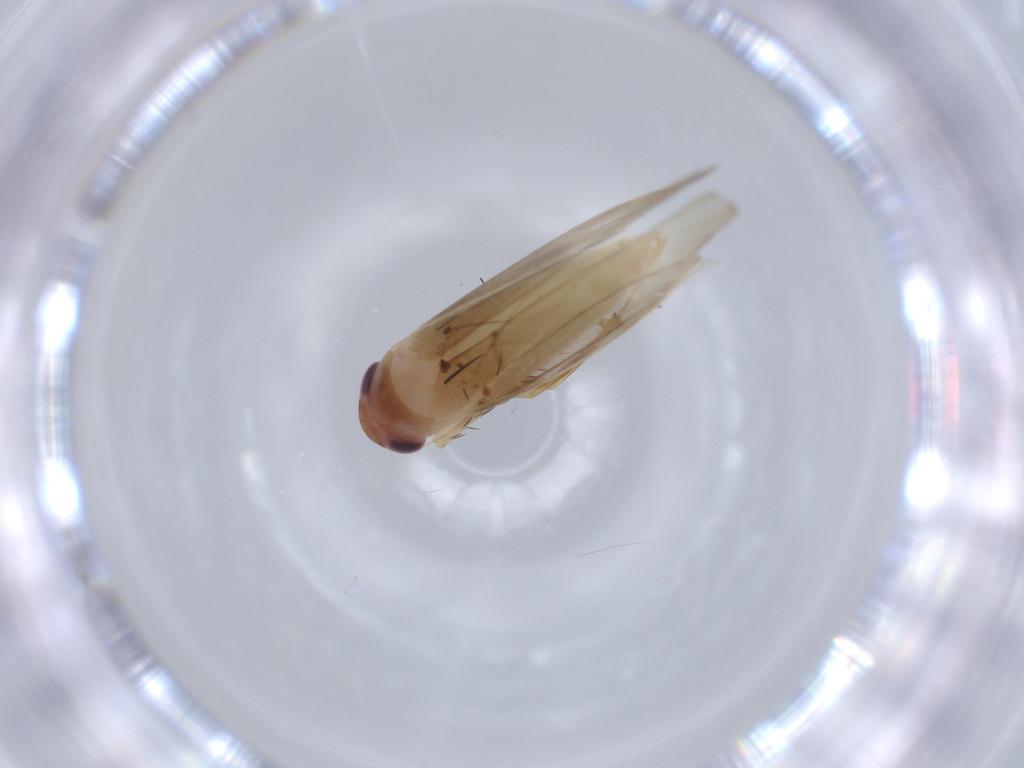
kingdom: Animalia
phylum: Arthropoda
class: Insecta
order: Hemiptera
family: Cicadellidae
